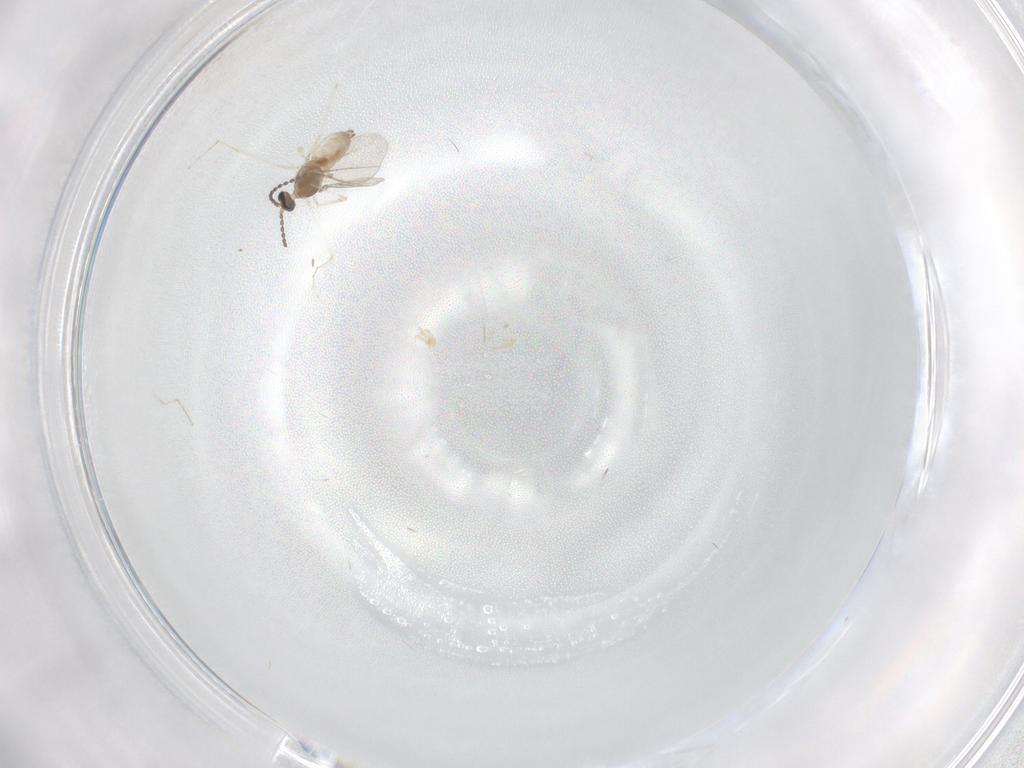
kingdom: Animalia
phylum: Arthropoda
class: Insecta
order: Diptera
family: Cecidomyiidae
